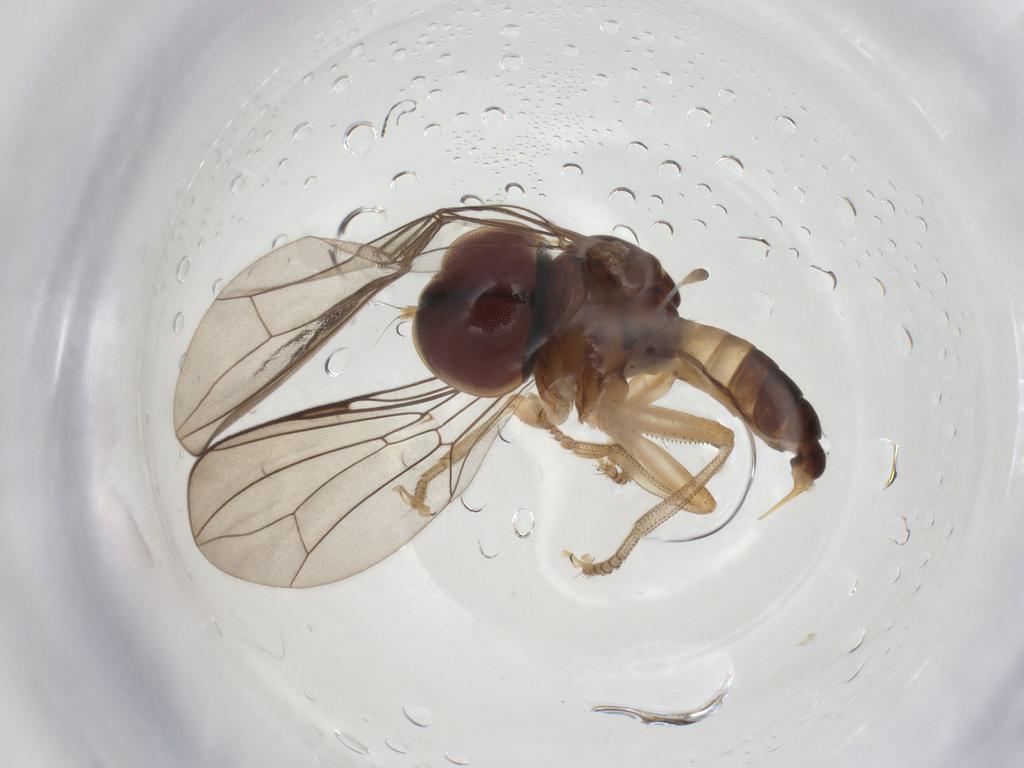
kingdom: Animalia
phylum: Arthropoda
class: Insecta
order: Diptera
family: Pipunculidae
